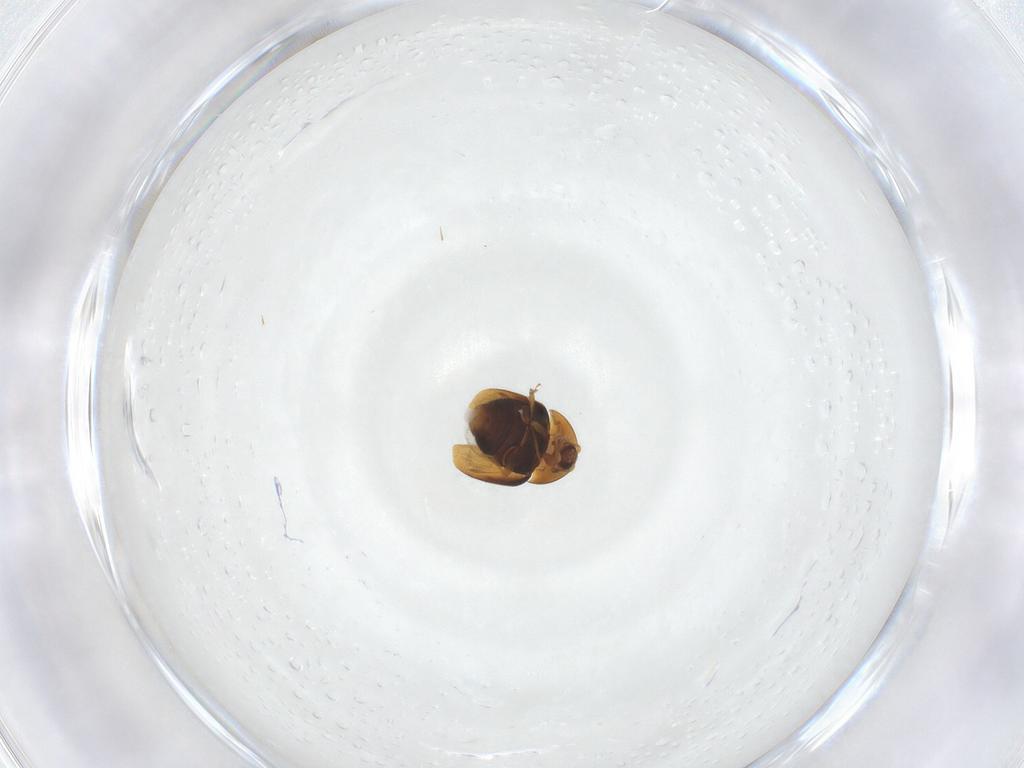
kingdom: Animalia
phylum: Arthropoda
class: Insecta
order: Coleoptera
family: Corylophidae
